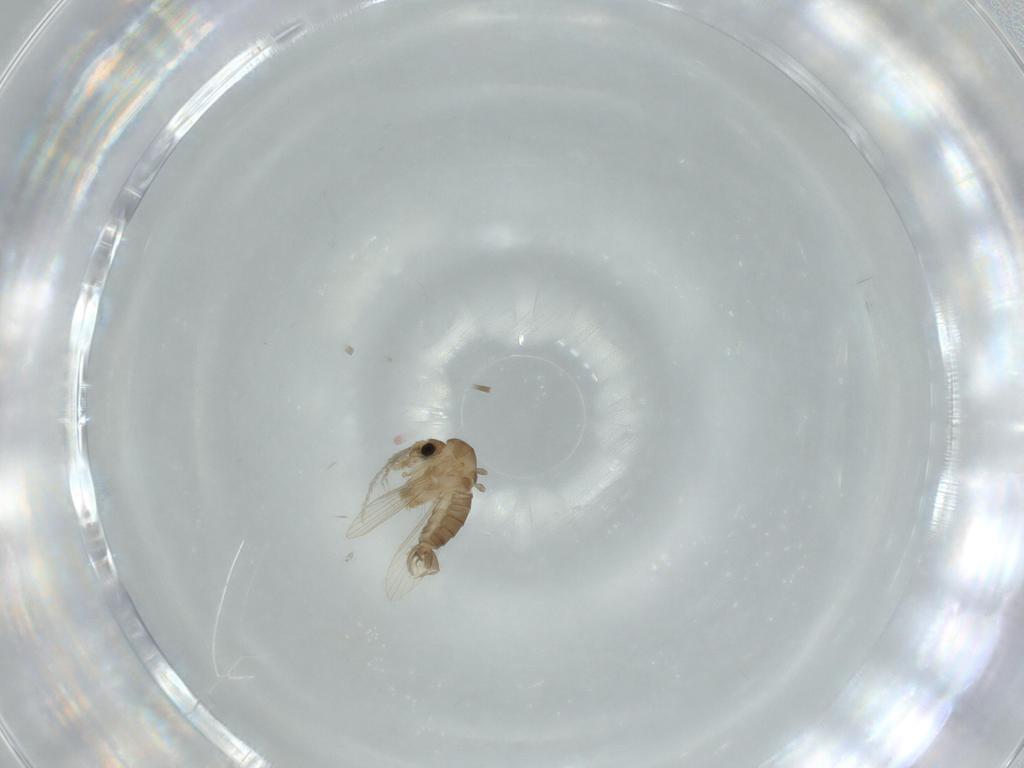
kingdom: Animalia
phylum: Arthropoda
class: Insecta
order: Diptera
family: Psychodidae
